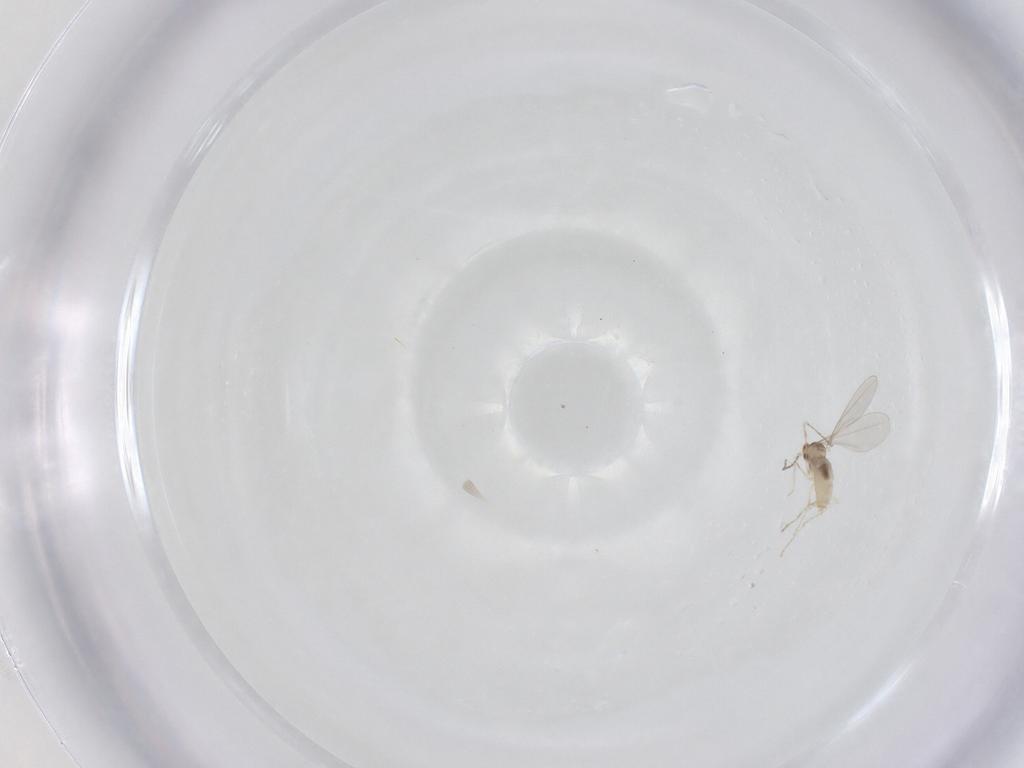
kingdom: Animalia
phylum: Arthropoda
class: Insecta
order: Diptera
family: Cecidomyiidae
